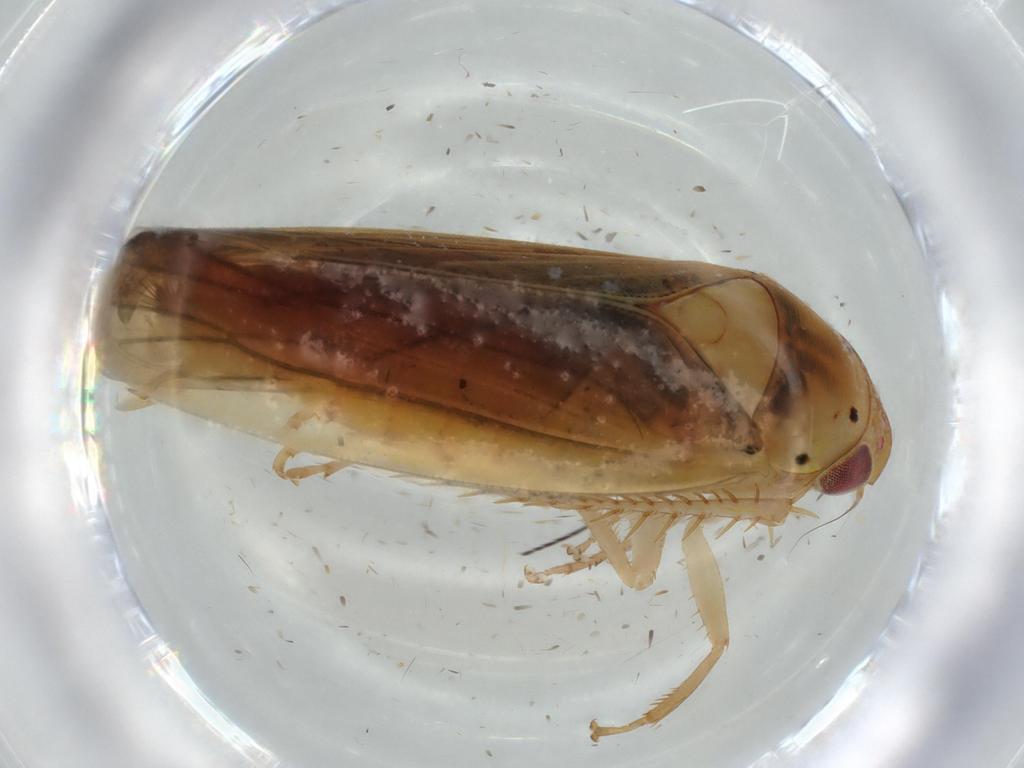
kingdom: Animalia
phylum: Arthropoda
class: Insecta
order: Hemiptera
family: Cicadellidae
